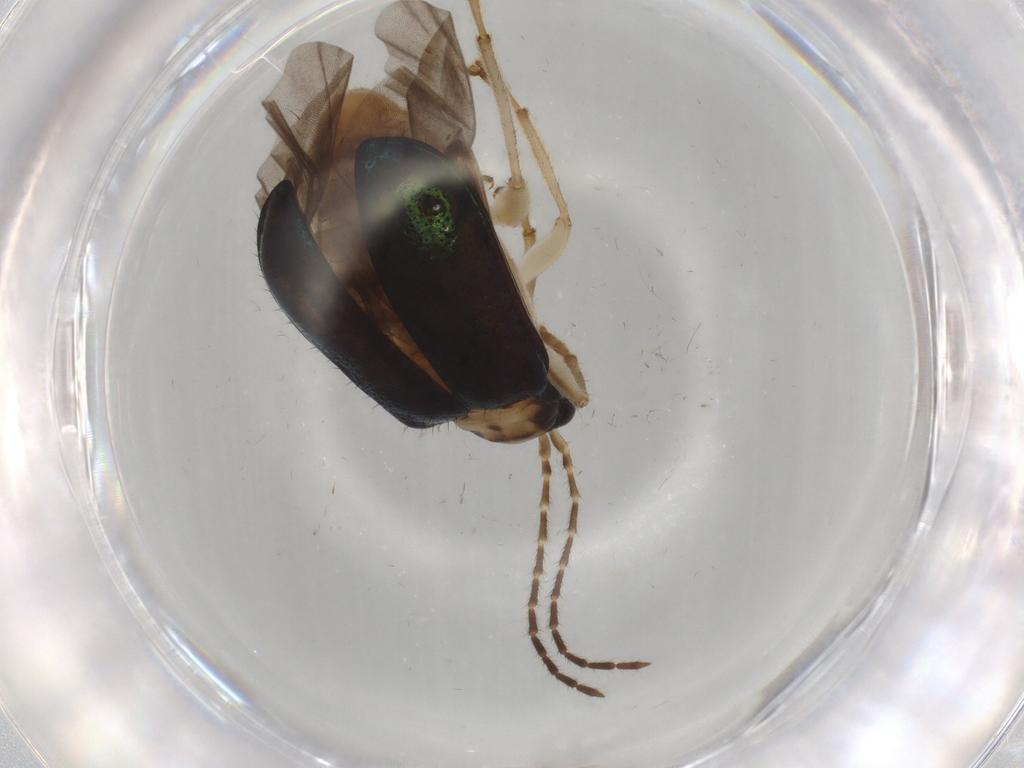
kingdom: Animalia
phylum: Arthropoda
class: Insecta
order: Coleoptera
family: Chrysomelidae
